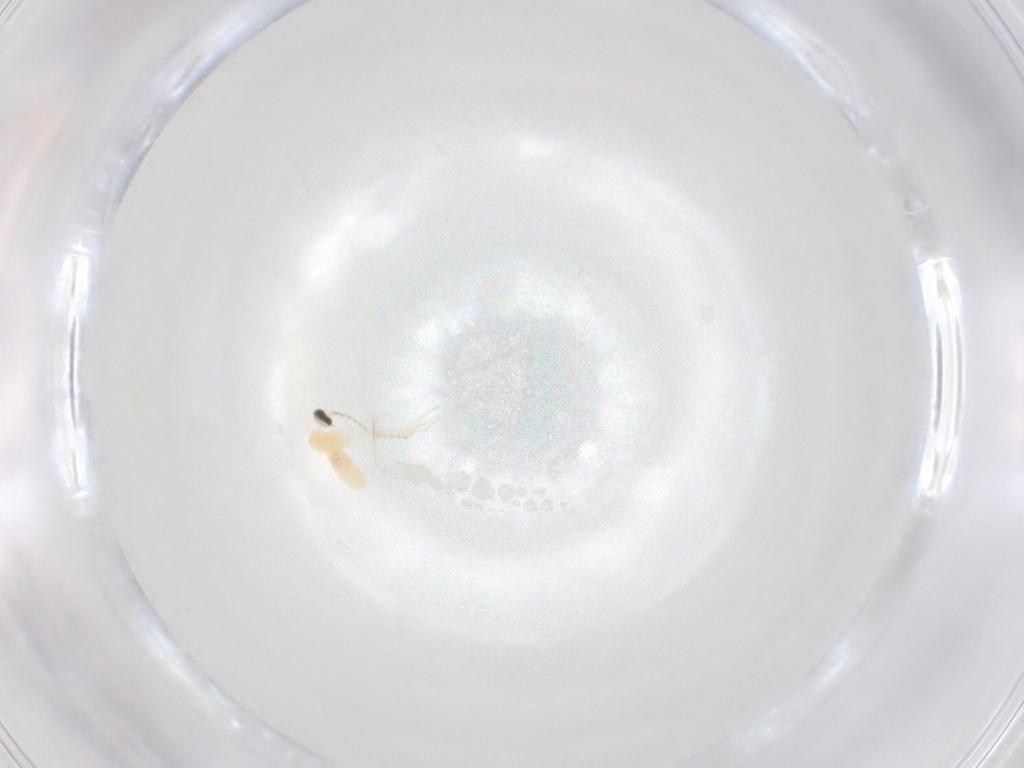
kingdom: Animalia
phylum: Arthropoda
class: Insecta
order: Diptera
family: Cecidomyiidae
